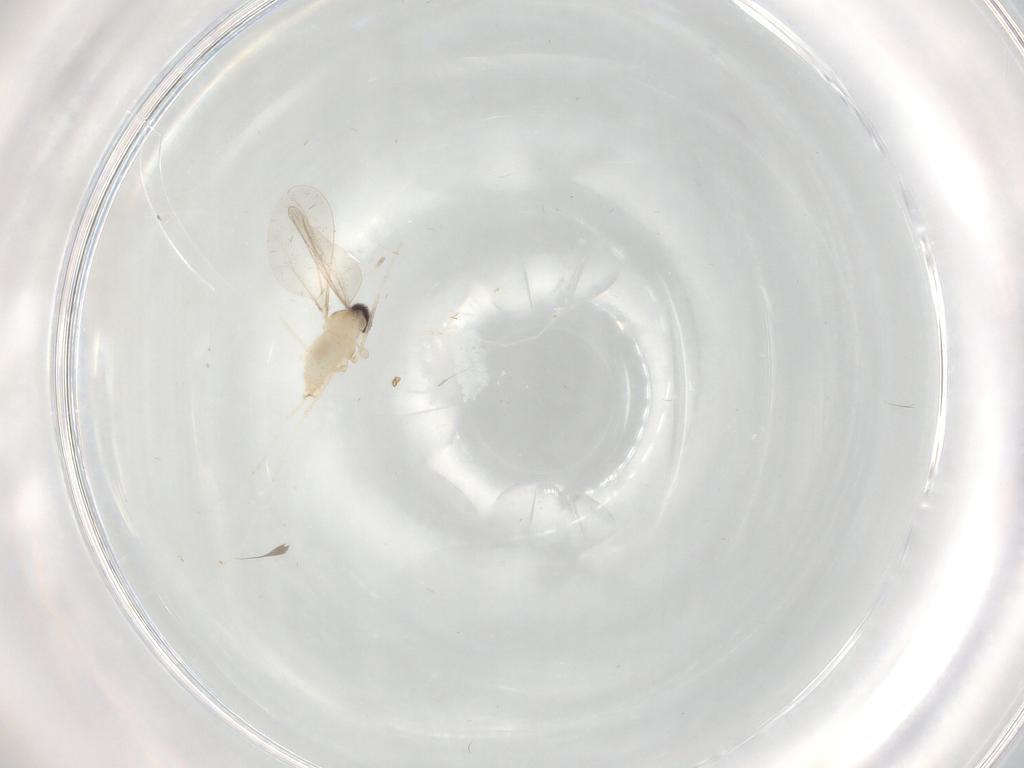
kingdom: Animalia
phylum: Arthropoda
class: Insecta
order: Diptera
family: Cecidomyiidae
